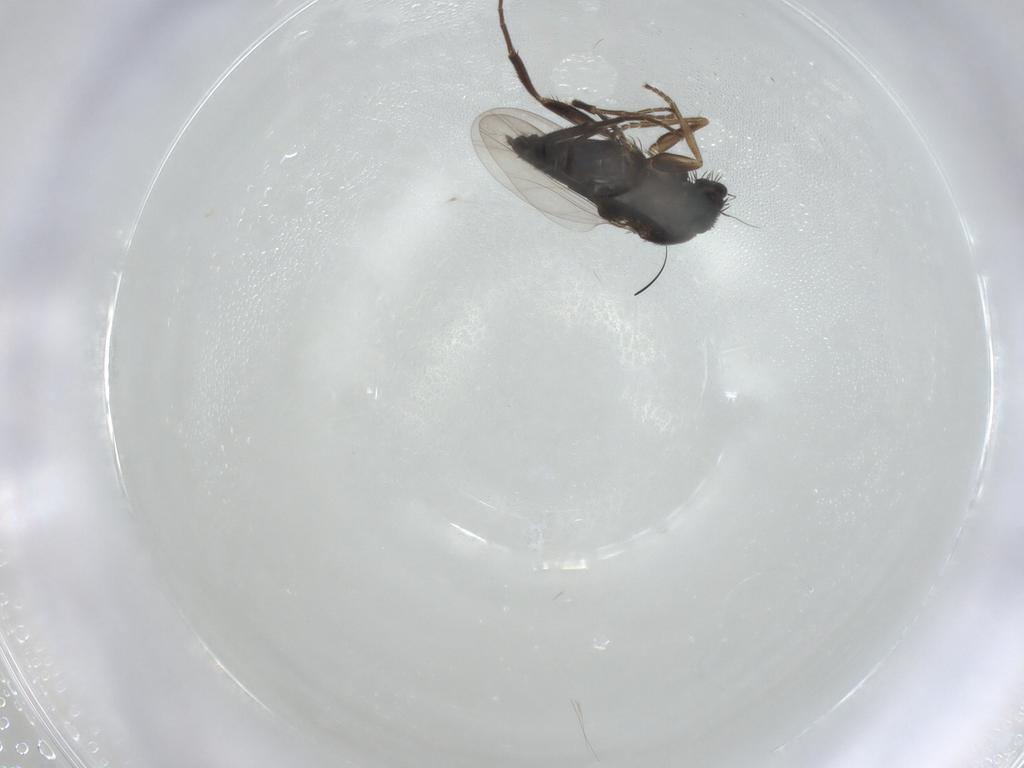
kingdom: Animalia
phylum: Arthropoda
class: Insecta
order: Diptera
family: Phoridae
